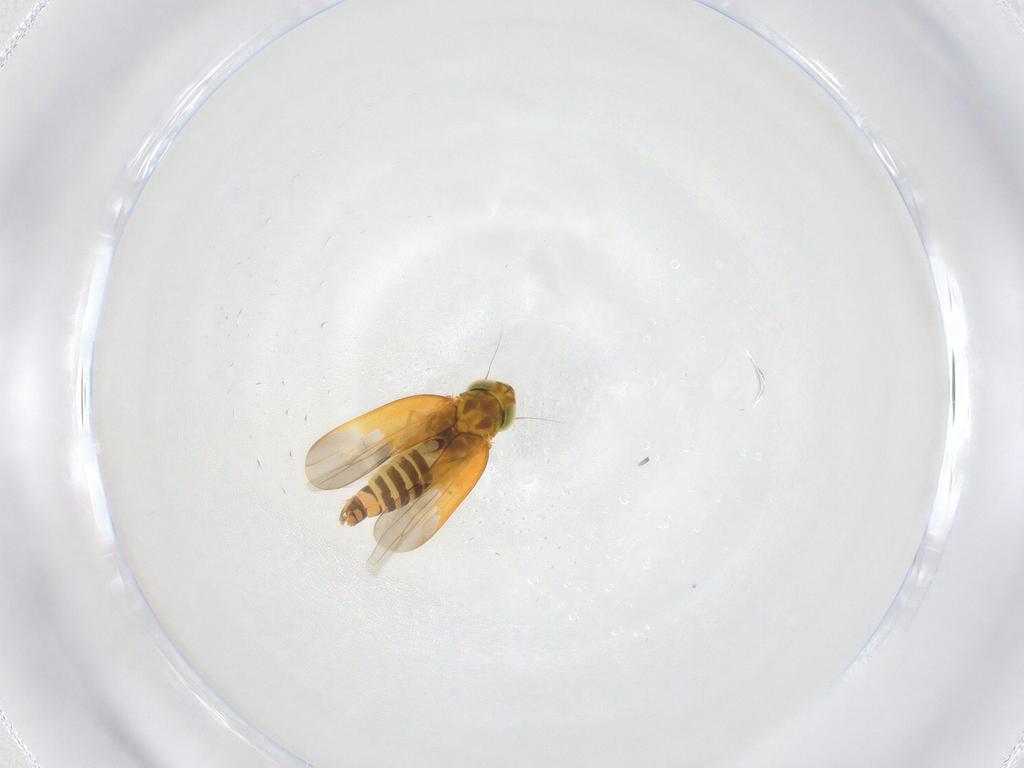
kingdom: Animalia
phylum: Arthropoda
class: Insecta
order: Hemiptera
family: Cicadellidae
